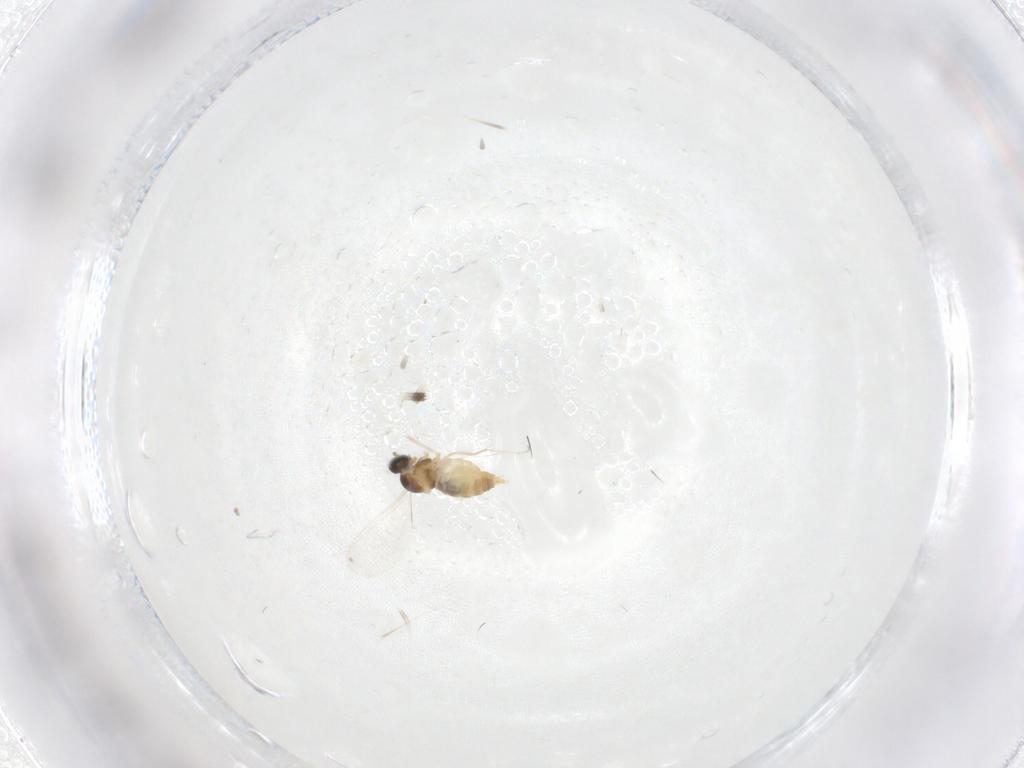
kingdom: Animalia
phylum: Arthropoda
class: Insecta
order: Diptera
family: Cecidomyiidae
